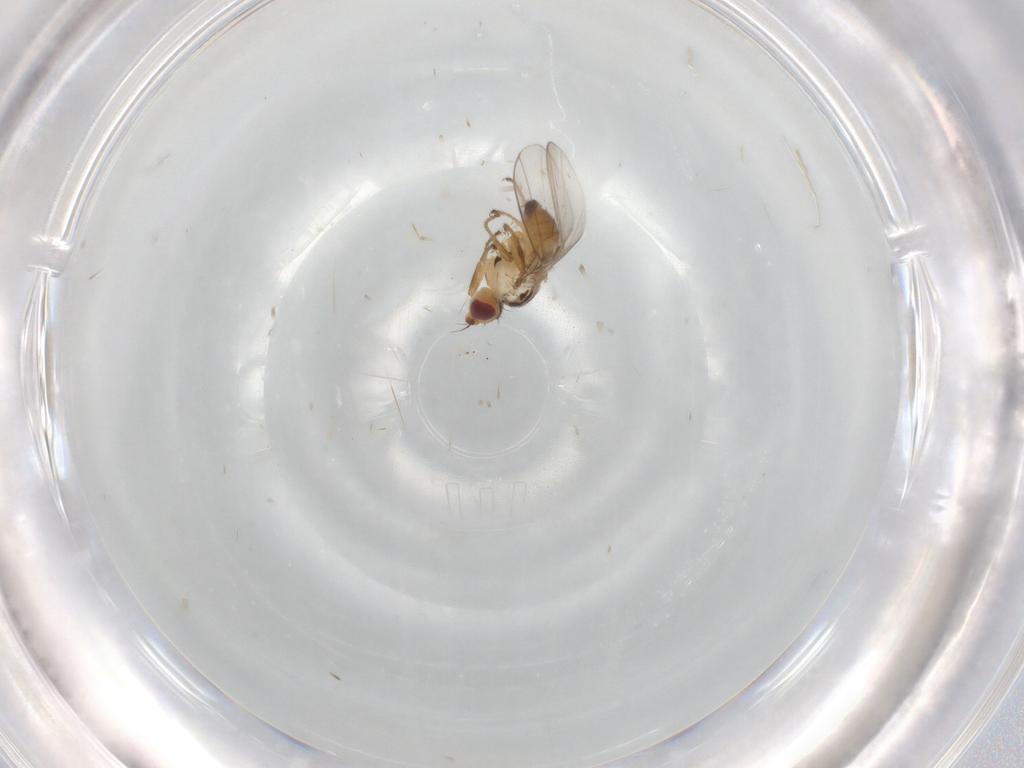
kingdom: Animalia
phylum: Arthropoda
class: Insecta
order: Diptera
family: Chloropidae
